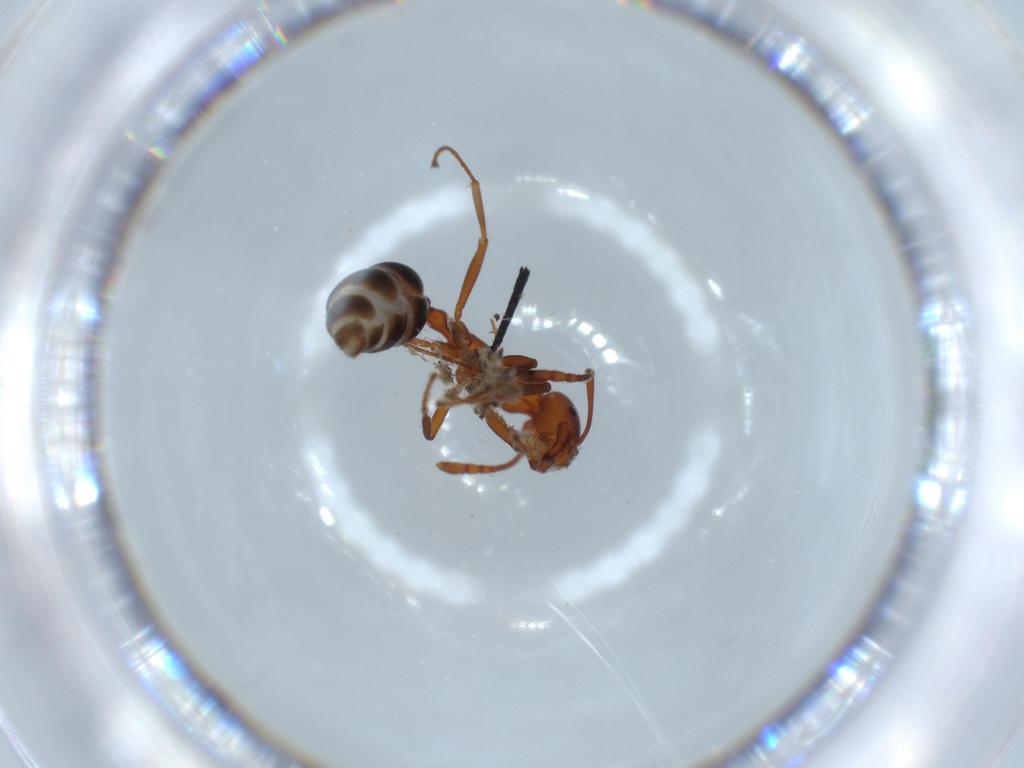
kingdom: Animalia
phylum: Arthropoda
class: Insecta
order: Hymenoptera
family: Formicidae
